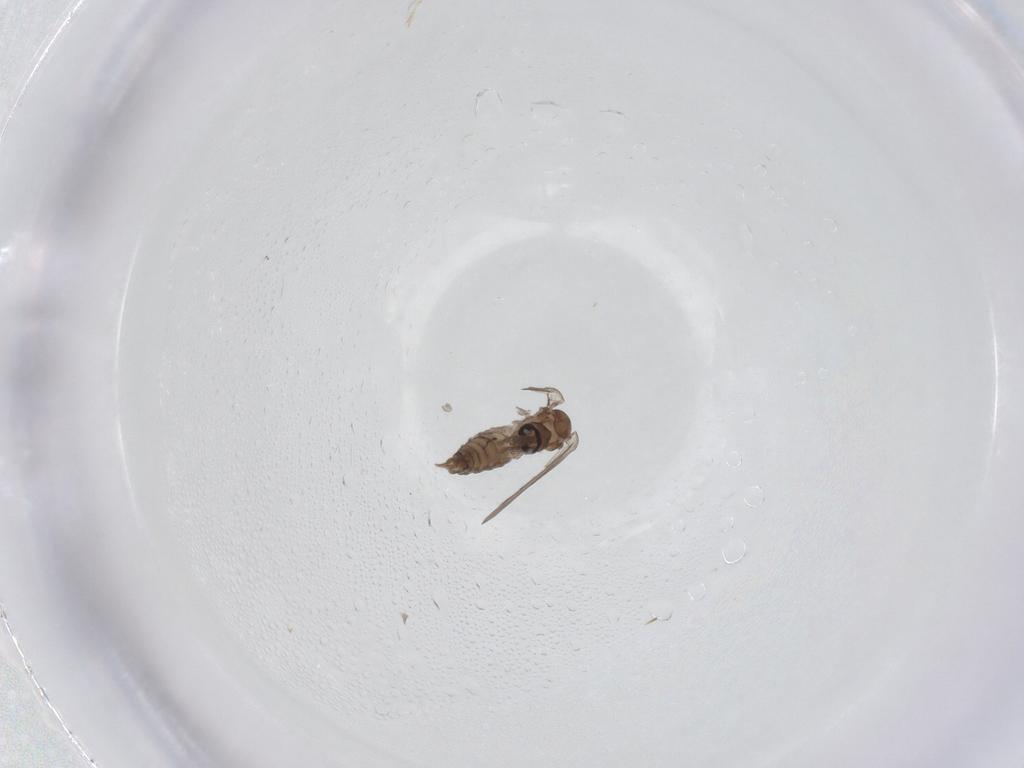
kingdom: Animalia
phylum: Arthropoda
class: Insecta
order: Diptera
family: Psychodidae
